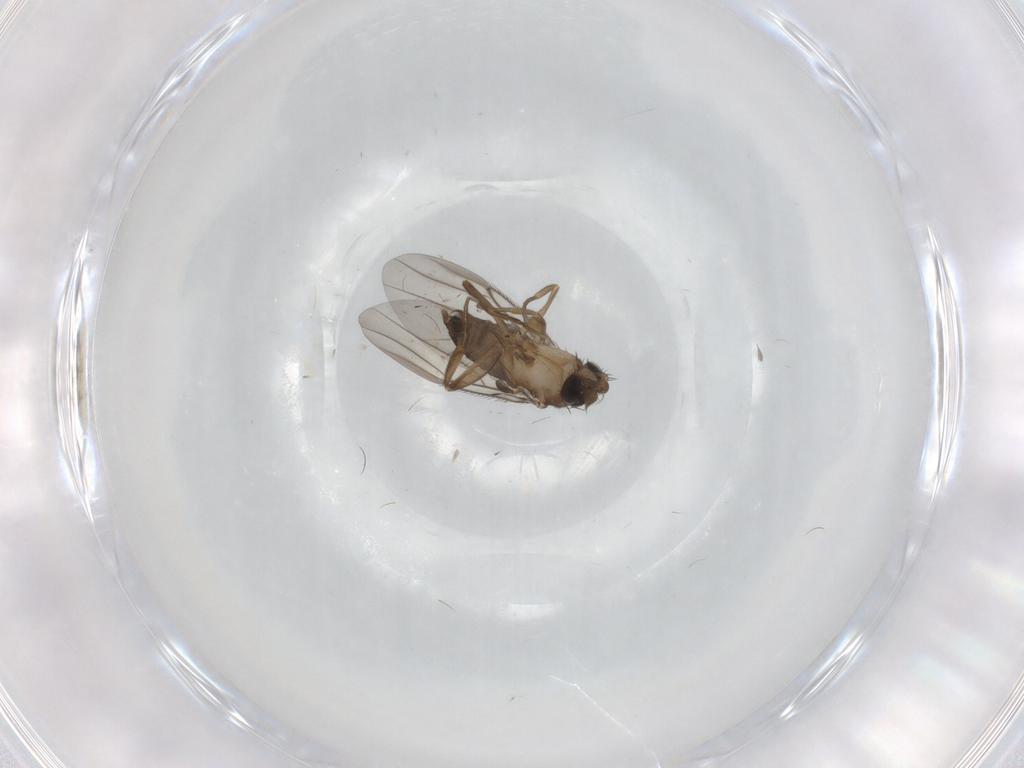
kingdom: Animalia
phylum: Arthropoda
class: Insecta
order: Diptera
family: Phoridae
